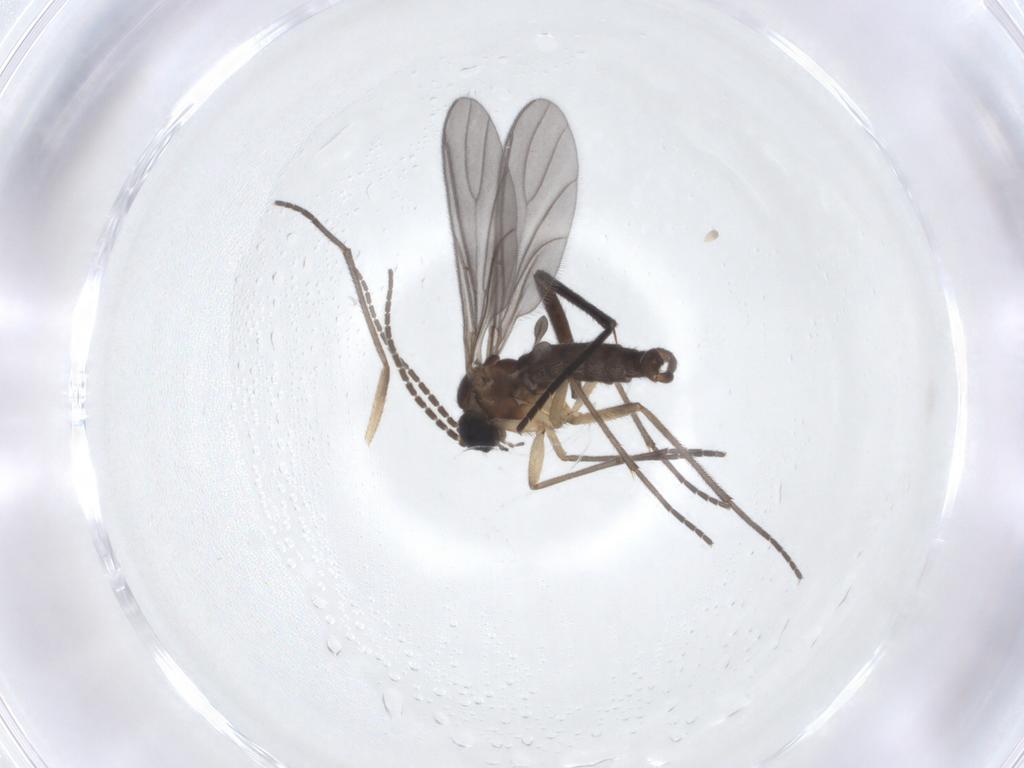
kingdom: Animalia
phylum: Arthropoda
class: Insecta
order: Diptera
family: Sciaridae
